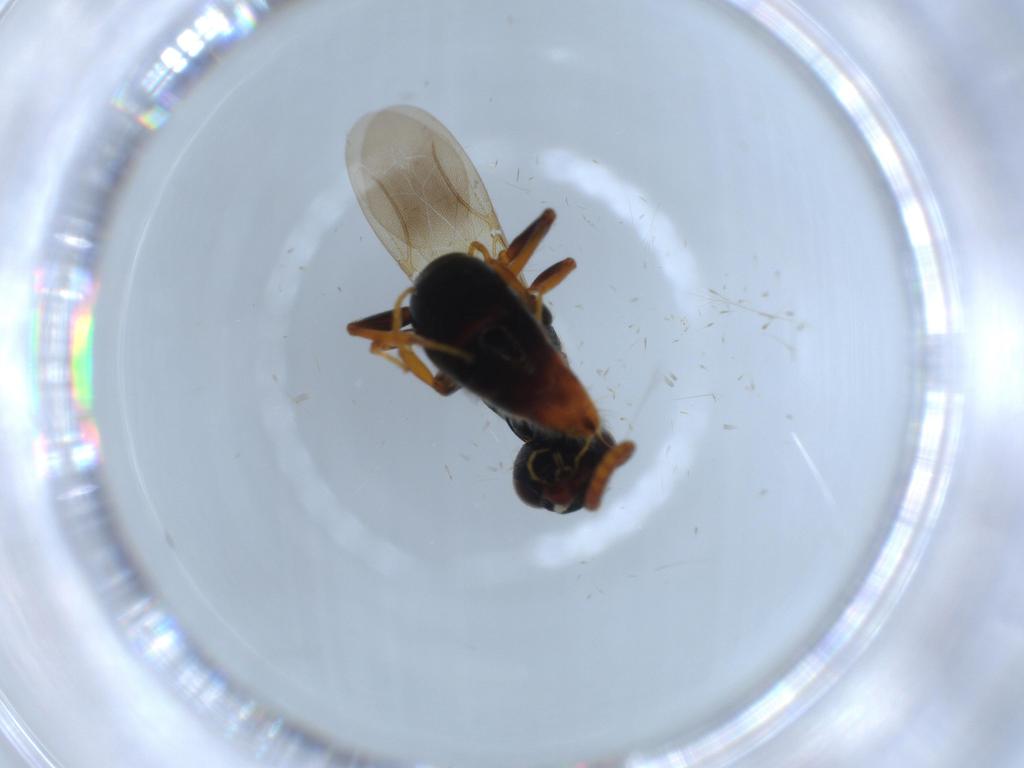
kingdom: Animalia
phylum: Arthropoda
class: Insecta
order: Hymenoptera
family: Bethylidae
